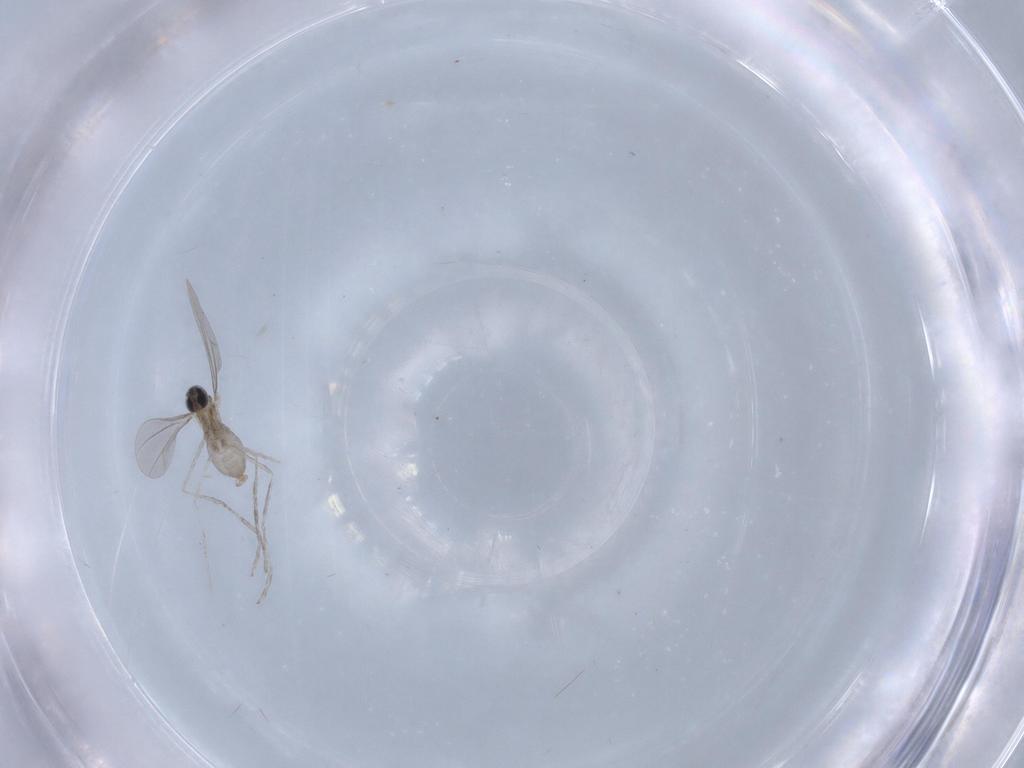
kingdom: Animalia
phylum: Arthropoda
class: Insecta
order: Diptera
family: Cecidomyiidae
